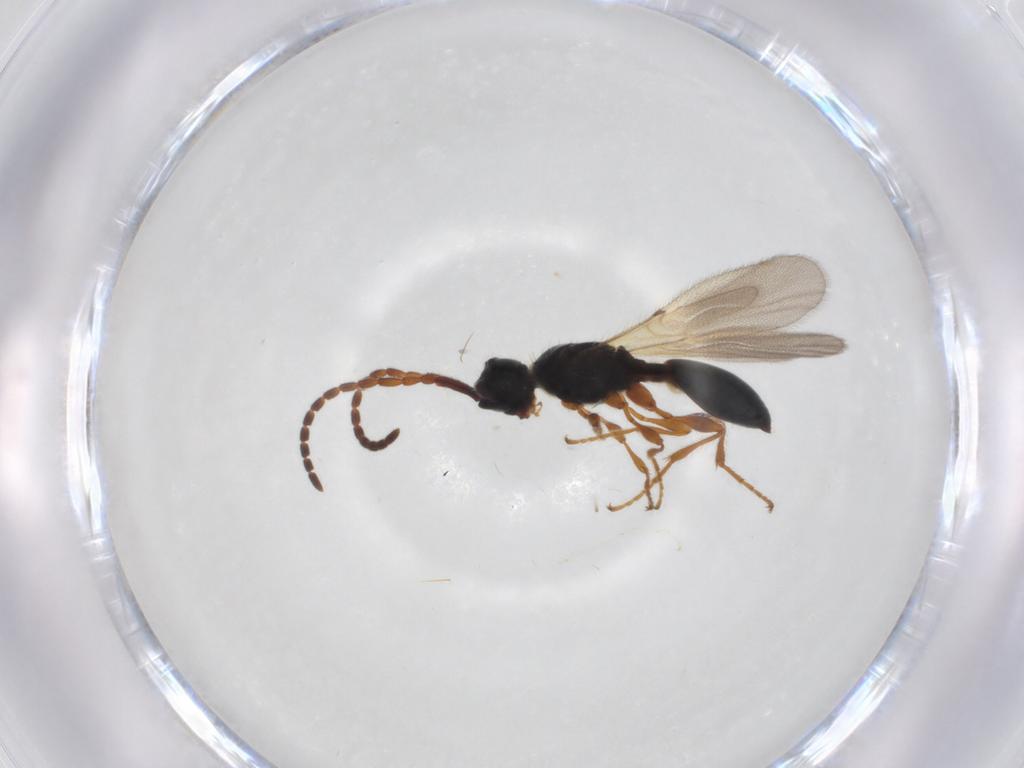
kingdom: Animalia
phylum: Arthropoda
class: Insecta
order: Hymenoptera
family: Diapriidae
